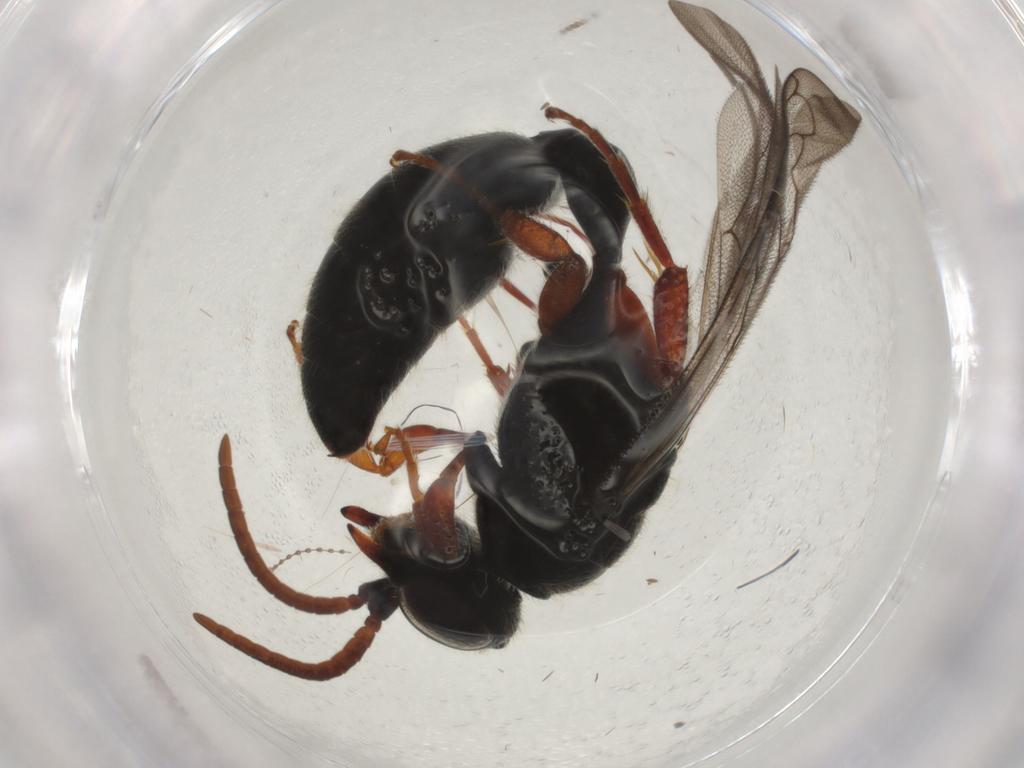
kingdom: Animalia
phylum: Arthropoda
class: Insecta
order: Hymenoptera
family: Tiphiidae
